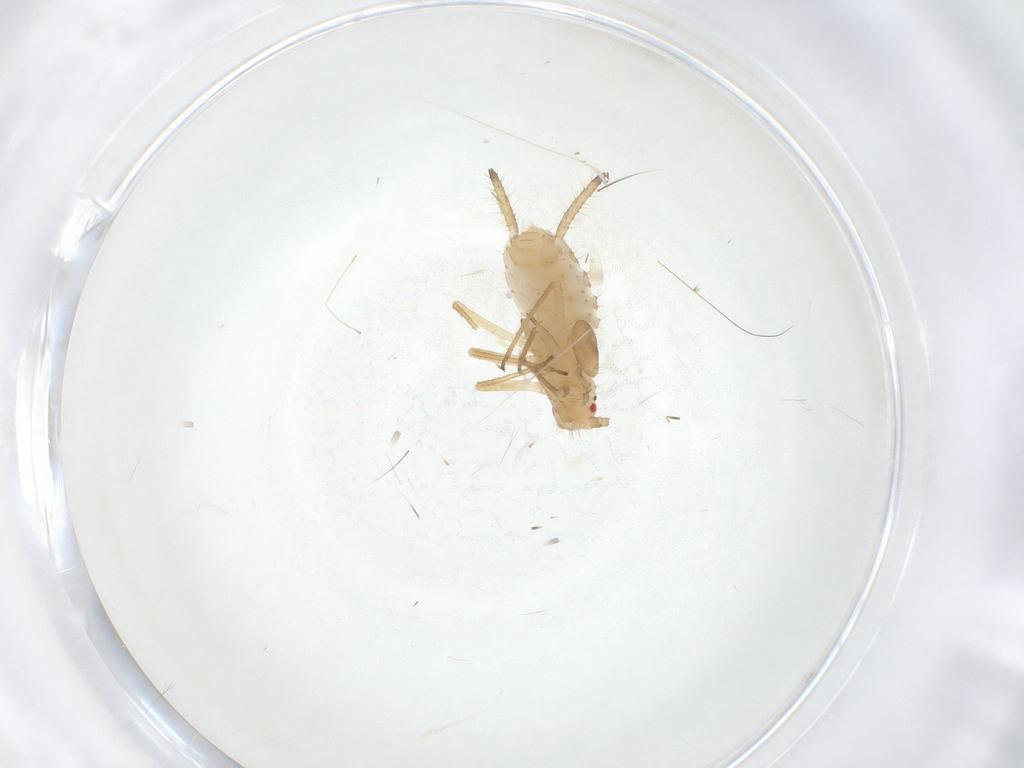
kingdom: Animalia
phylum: Arthropoda
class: Insecta
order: Hemiptera
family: Aphididae
